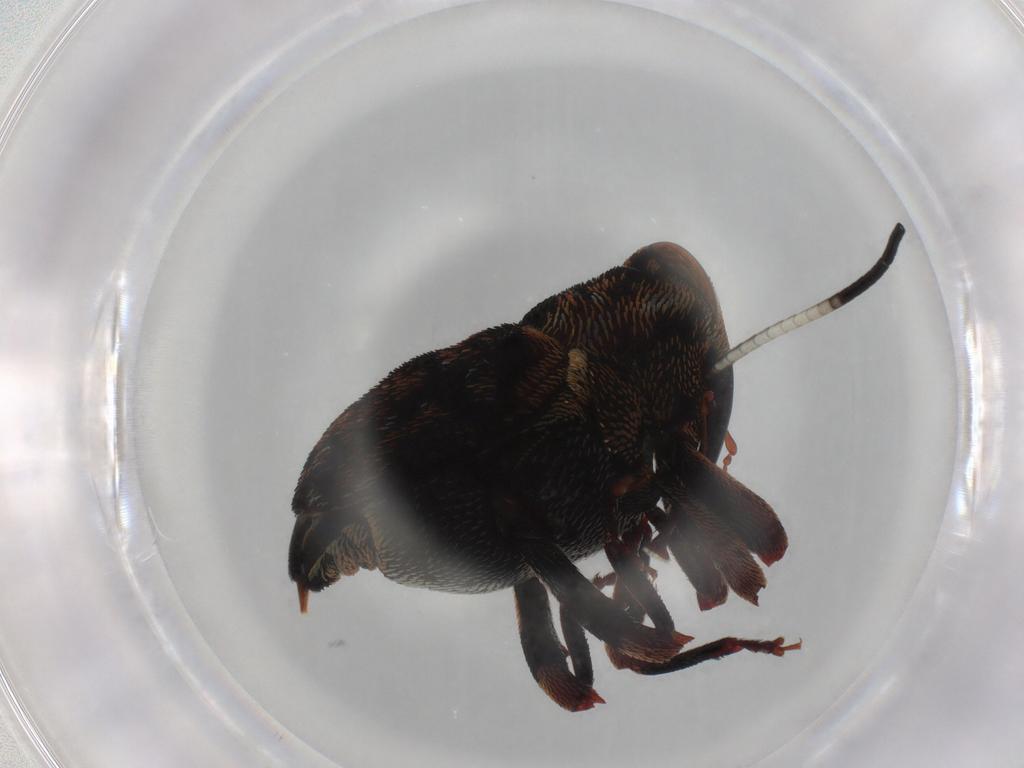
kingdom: Animalia
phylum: Arthropoda
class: Insecta
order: Coleoptera
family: Curculionidae
